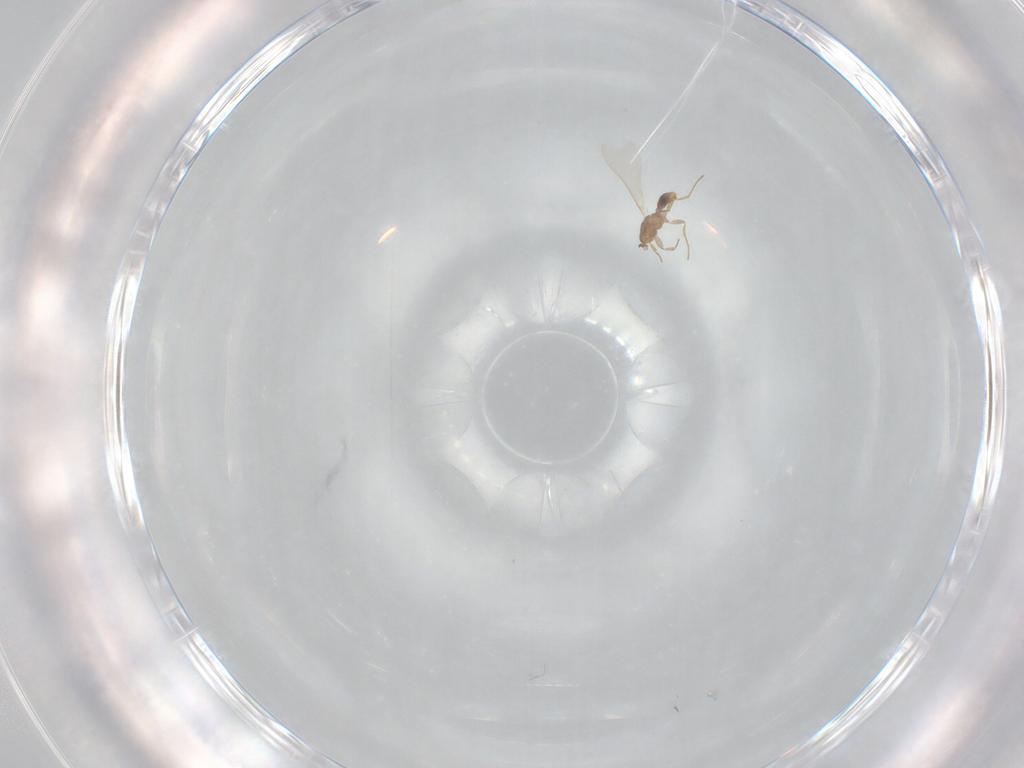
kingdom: Animalia
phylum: Arthropoda
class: Insecta
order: Hymenoptera
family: Formicidae
